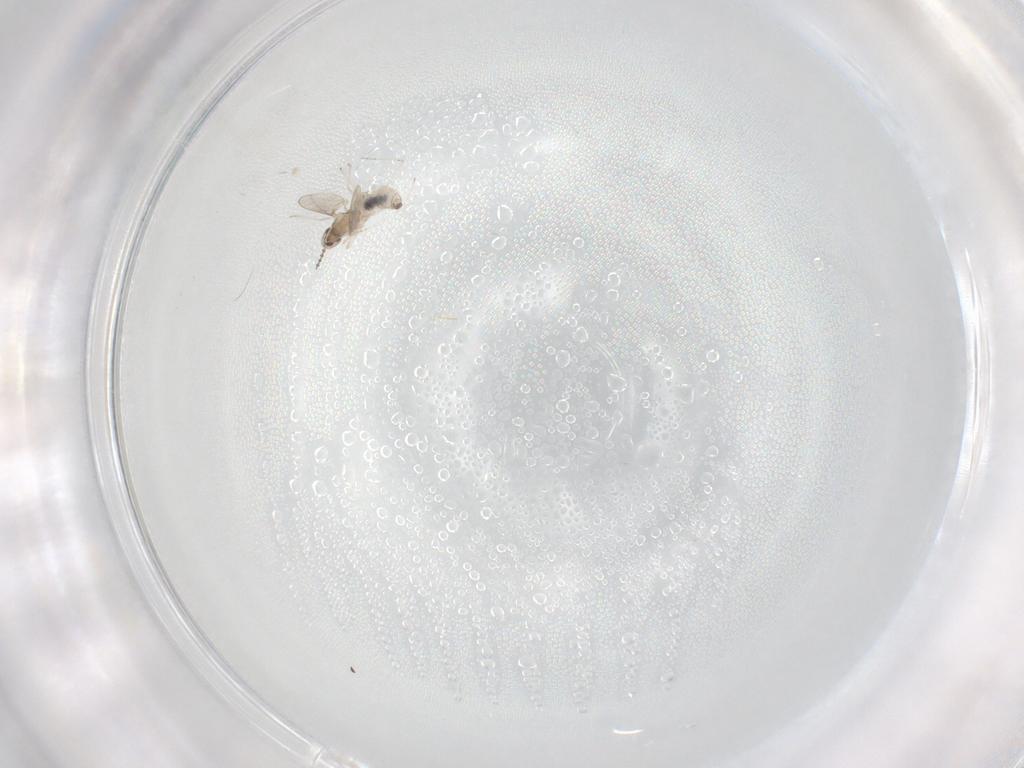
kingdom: Animalia
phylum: Arthropoda
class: Insecta
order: Diptera
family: Cecidomyiidae
